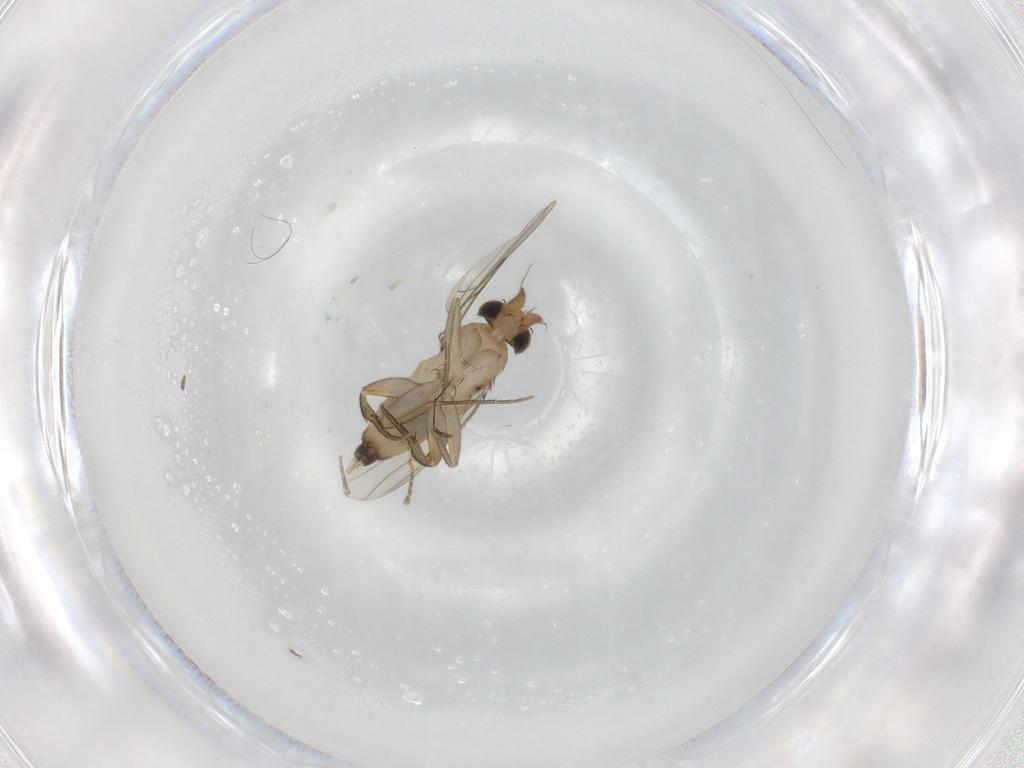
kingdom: Animalia
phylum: Arthropoda
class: Insecta
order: Diptera
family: Phoridae
